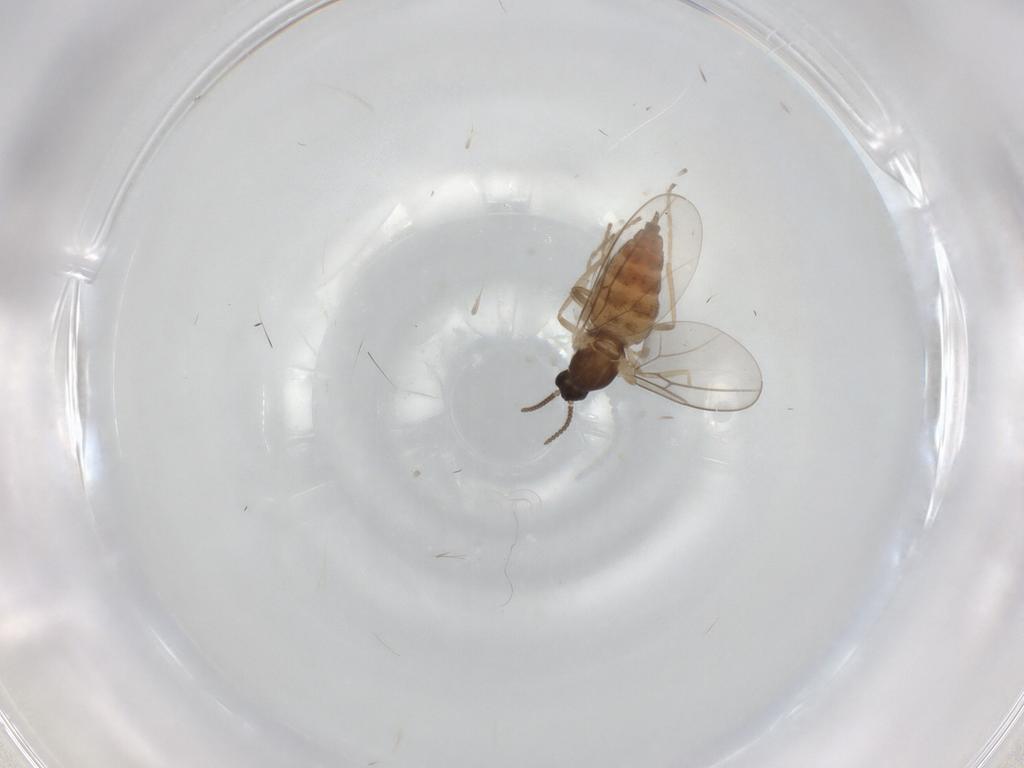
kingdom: Animalia
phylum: Arthropoda
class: Insecta
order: Diptera
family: Cecidomyiidae
